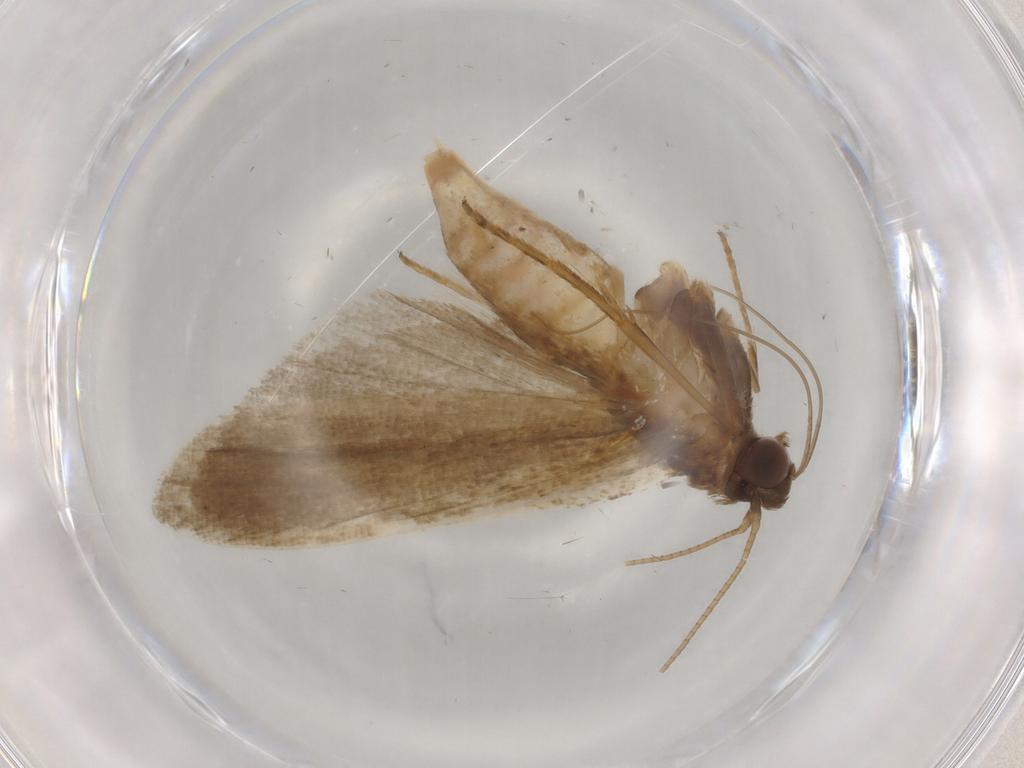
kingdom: Animalia
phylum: Arthropoda
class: Insecta
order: Lepidoptera
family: Noctuidae
